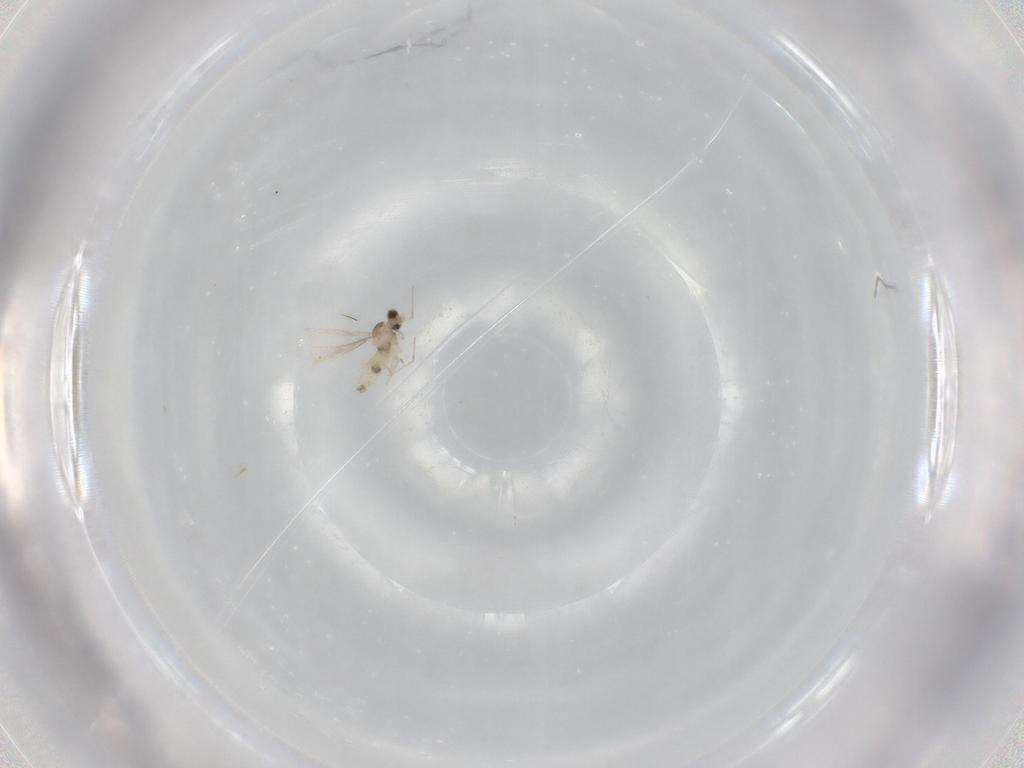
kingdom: Animalia
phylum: Arthropoda
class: Insecta
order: Diptera
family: Cecidomyiidae
